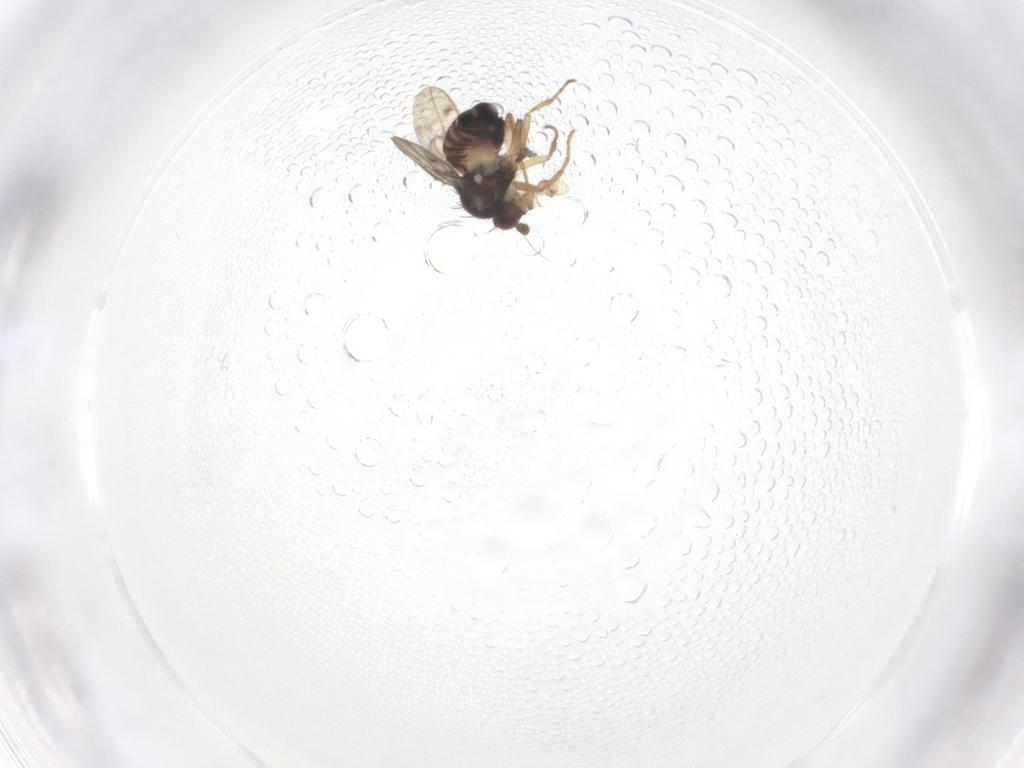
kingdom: Animalia
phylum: Arthropoda
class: Insecta
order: Diptera
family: Sphaeroceridae
